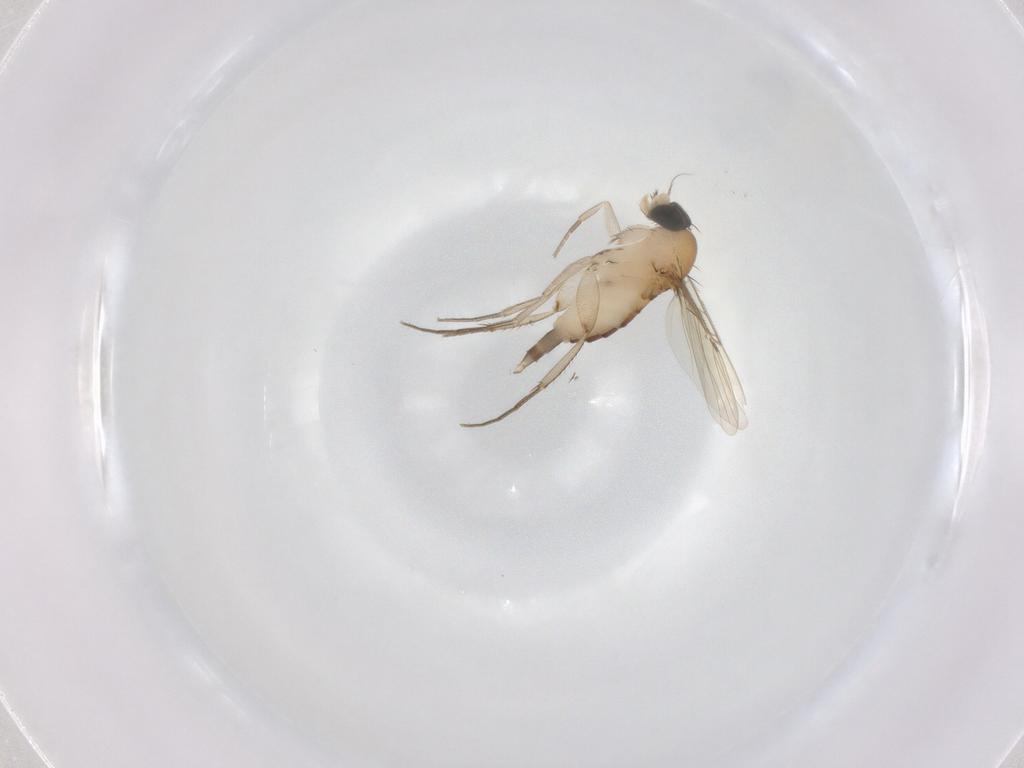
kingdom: Animalia
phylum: Arthropoda
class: Insecta
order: Diptera
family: Phoridae
